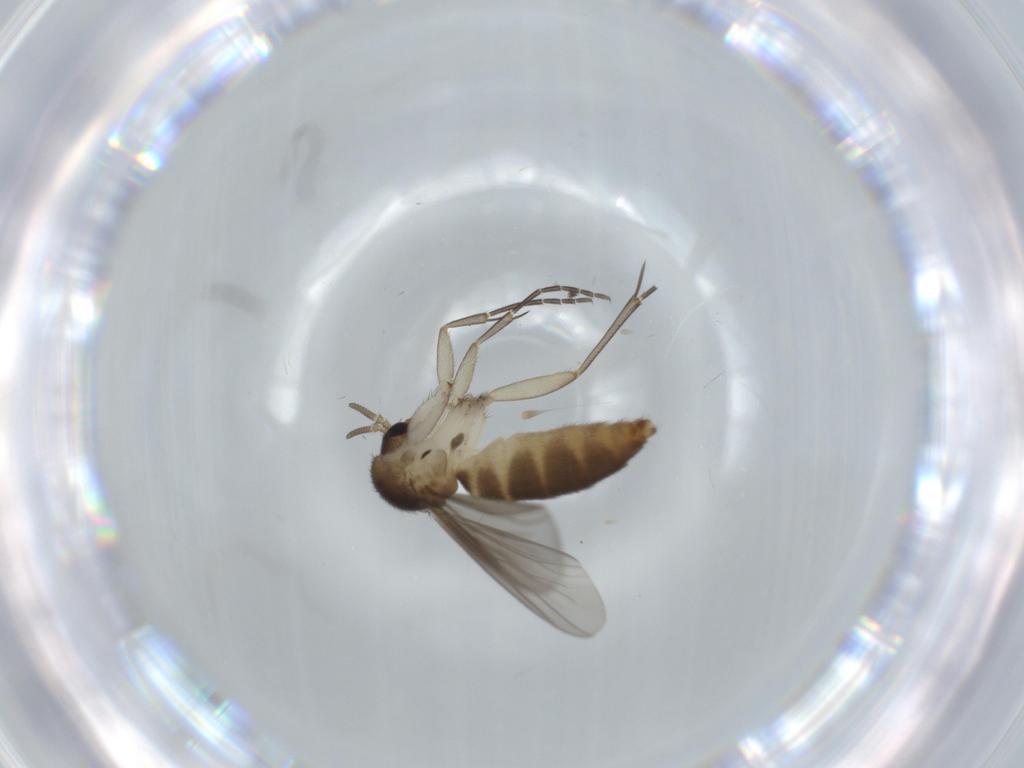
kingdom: Animalia
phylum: Arthropoda
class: Insecta
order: Diptera
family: Mycetophilidae
